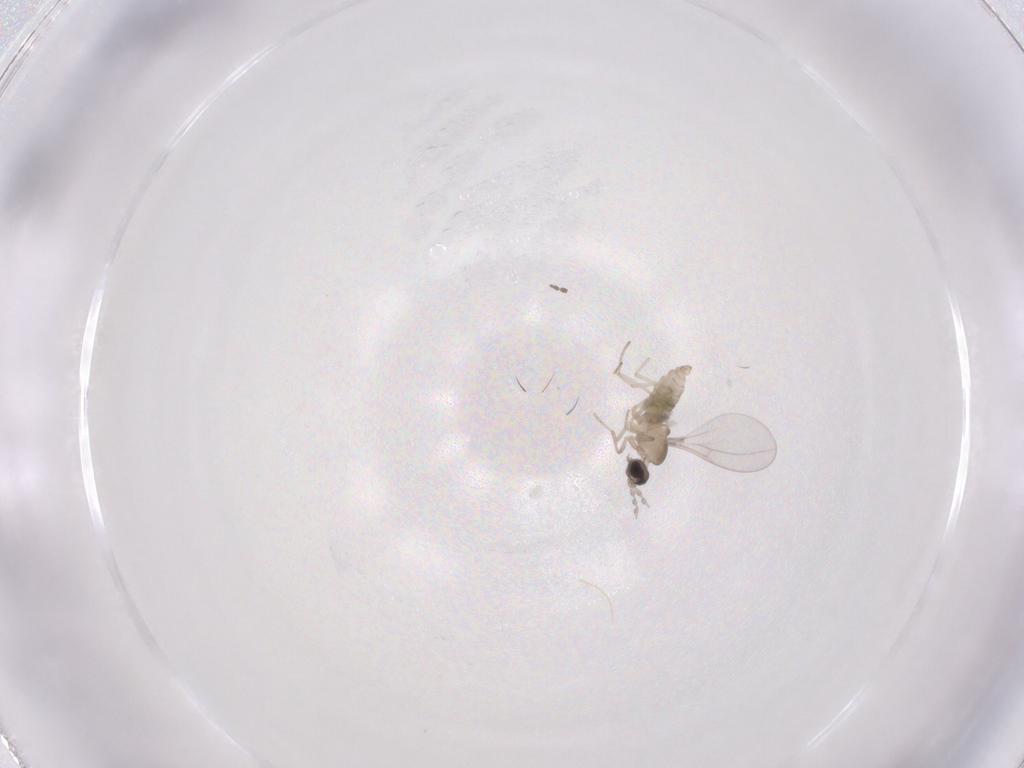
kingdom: Animalia
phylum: Arthropoda
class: Insecta
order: Diptera
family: Cecidomyiidae
